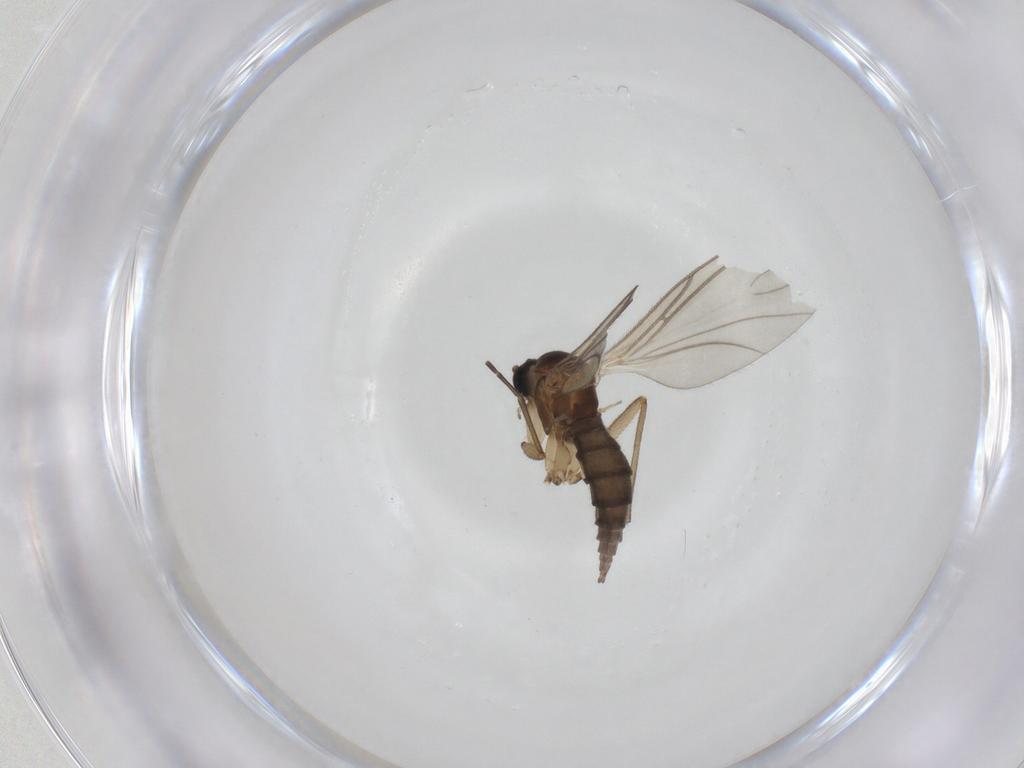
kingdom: Animalia
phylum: Arthropoda
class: Insecta
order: Diptera
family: Sciaridae
